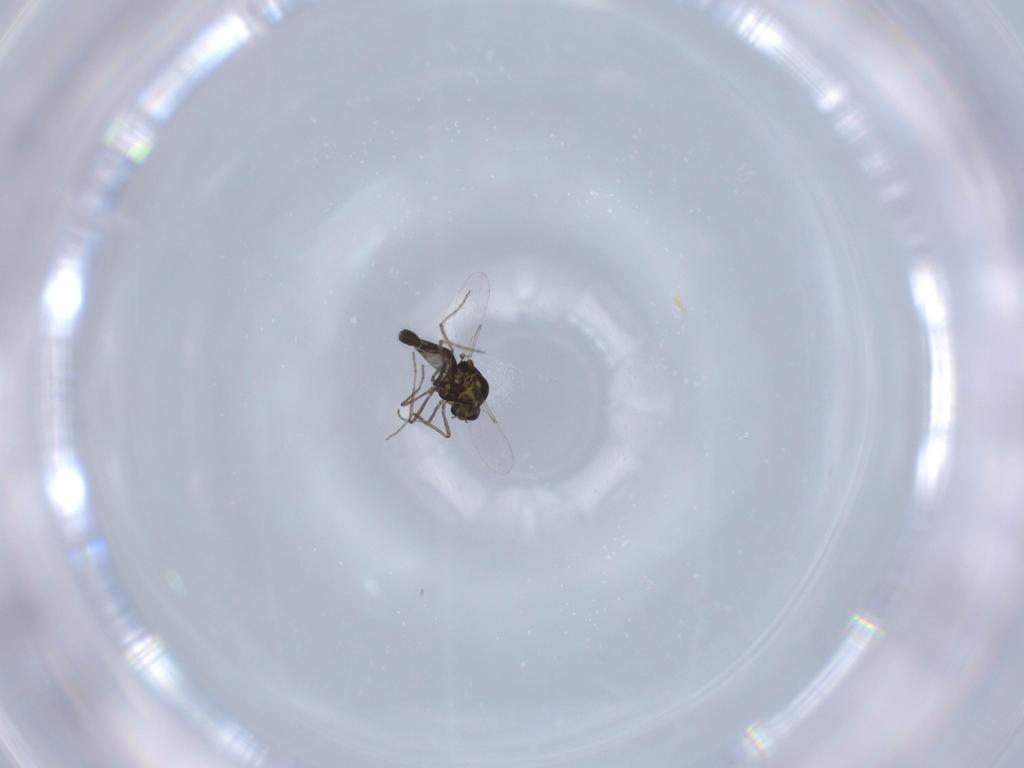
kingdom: Animalia
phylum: Arthropoda
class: Insecta
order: Diptera
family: Ceratopogonidae
